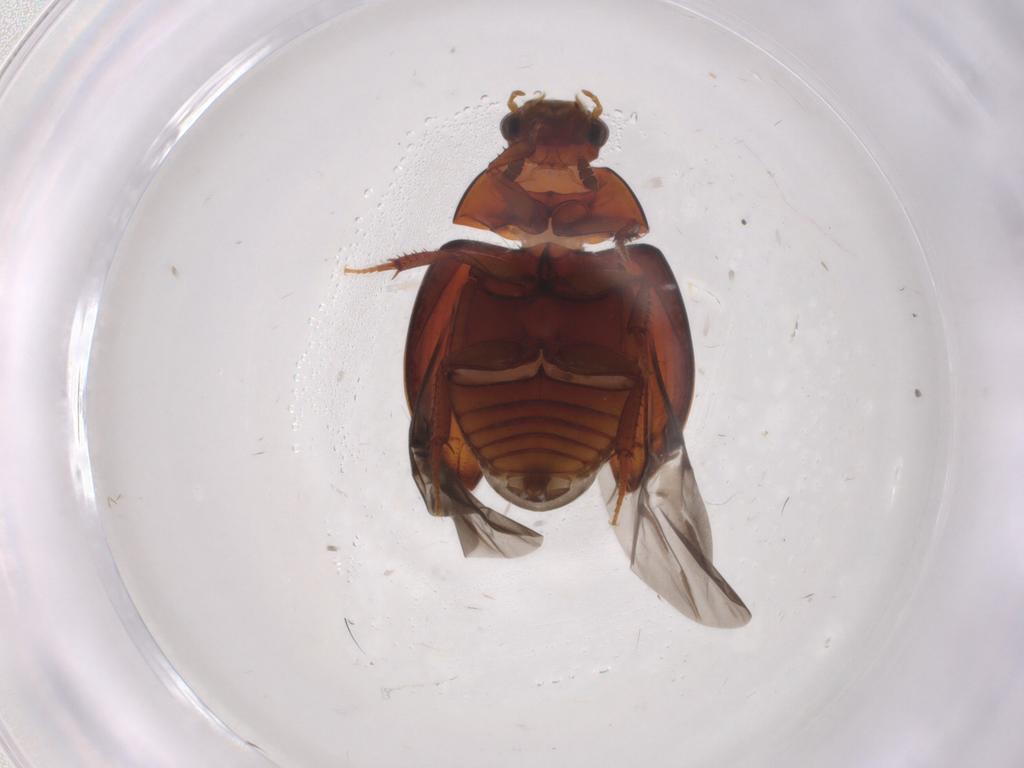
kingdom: Animalia
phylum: Arthropoda
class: Insecta
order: Coleoptera
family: Hydrophilidae
